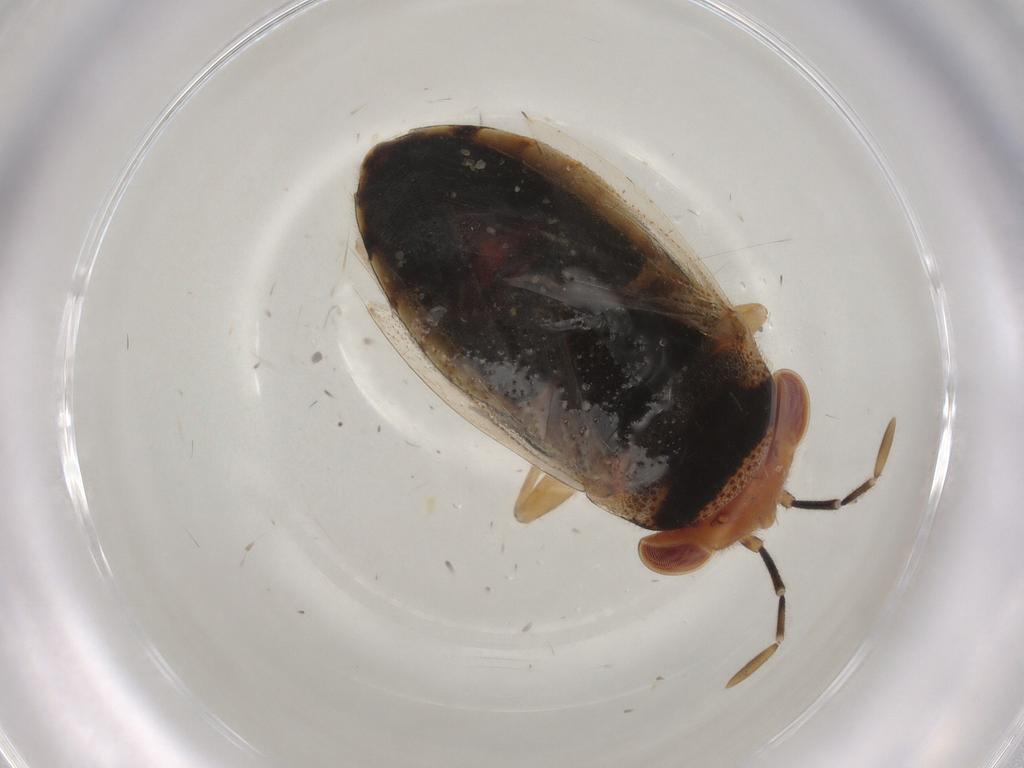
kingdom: Animalia
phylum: Arthropoda
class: Insecta
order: Hemiptera
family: Geocoridae
